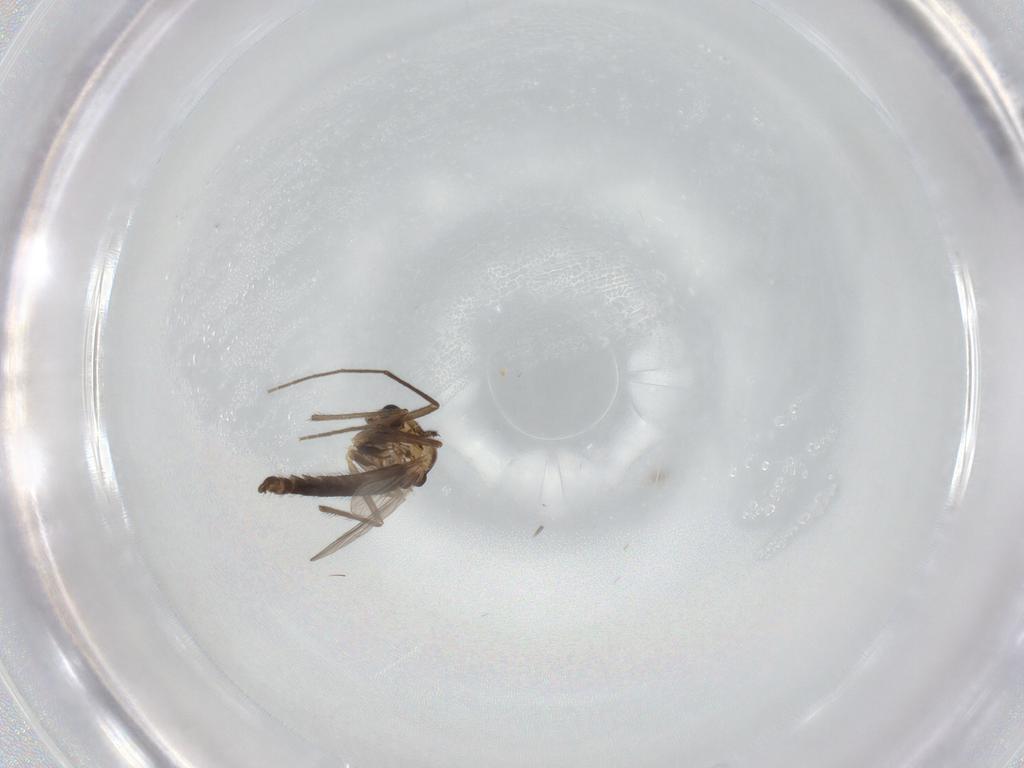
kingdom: Animalia
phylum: Arthropoda
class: Insecta
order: Diptera
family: Chironomidae
